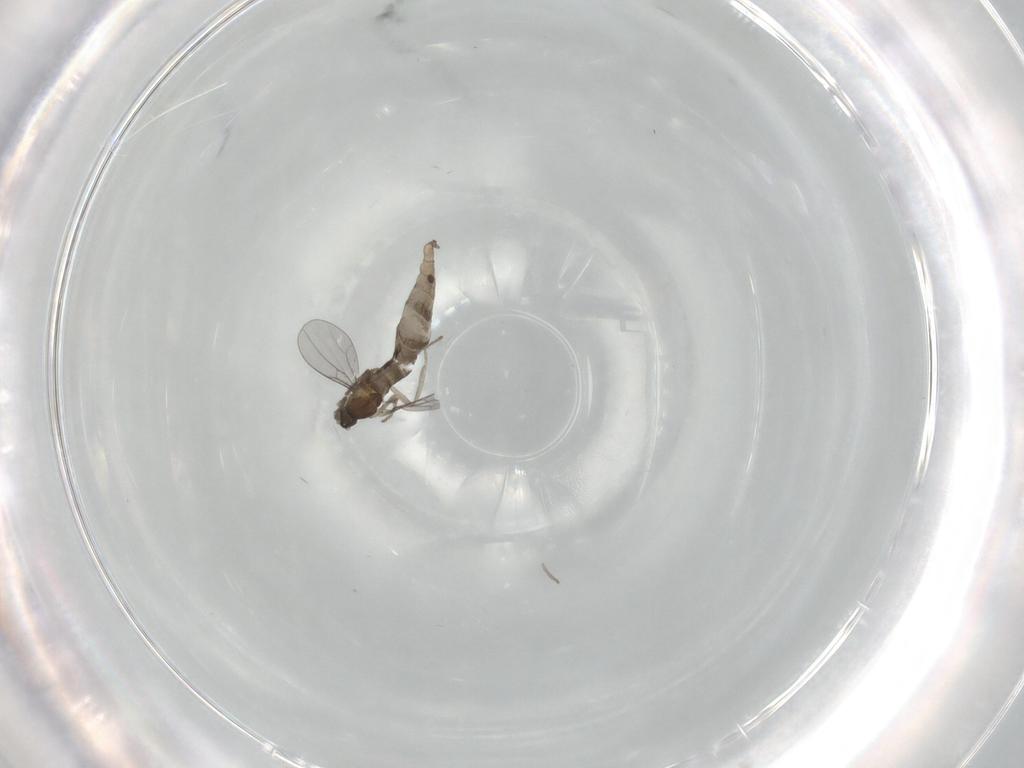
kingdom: Animalia
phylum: Arthropoda
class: Insecta
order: Diptera
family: Cecidomyiidae
